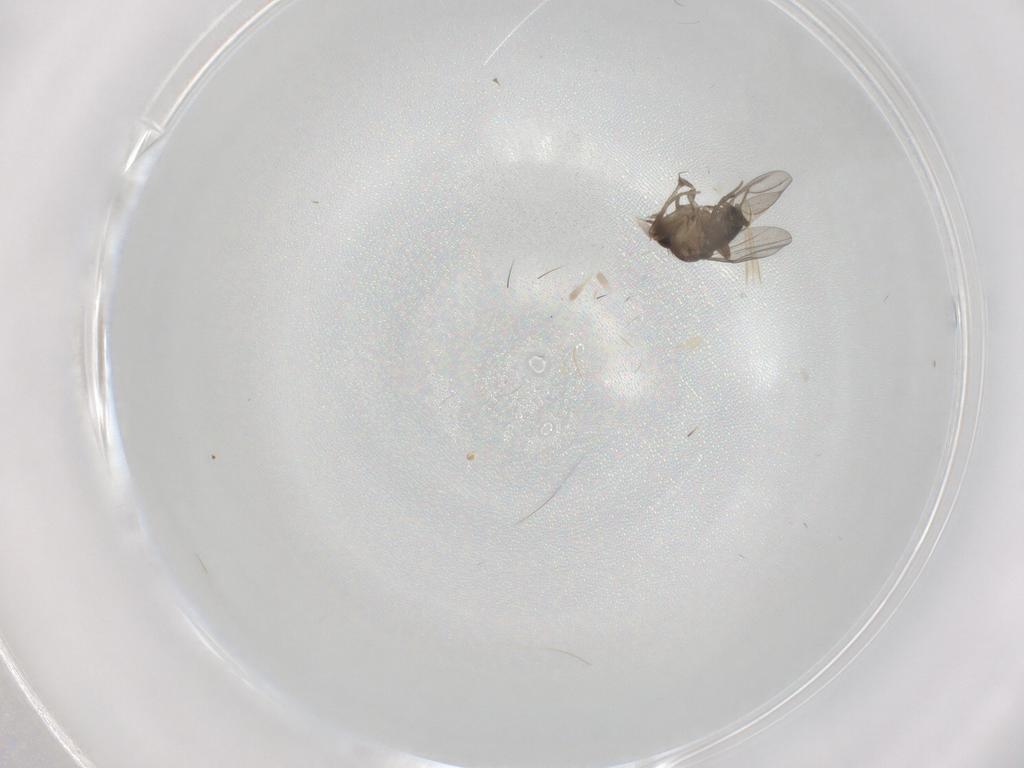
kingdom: Animalia
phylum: Arthropoda
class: Insecta
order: Diptera
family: Phoridae
